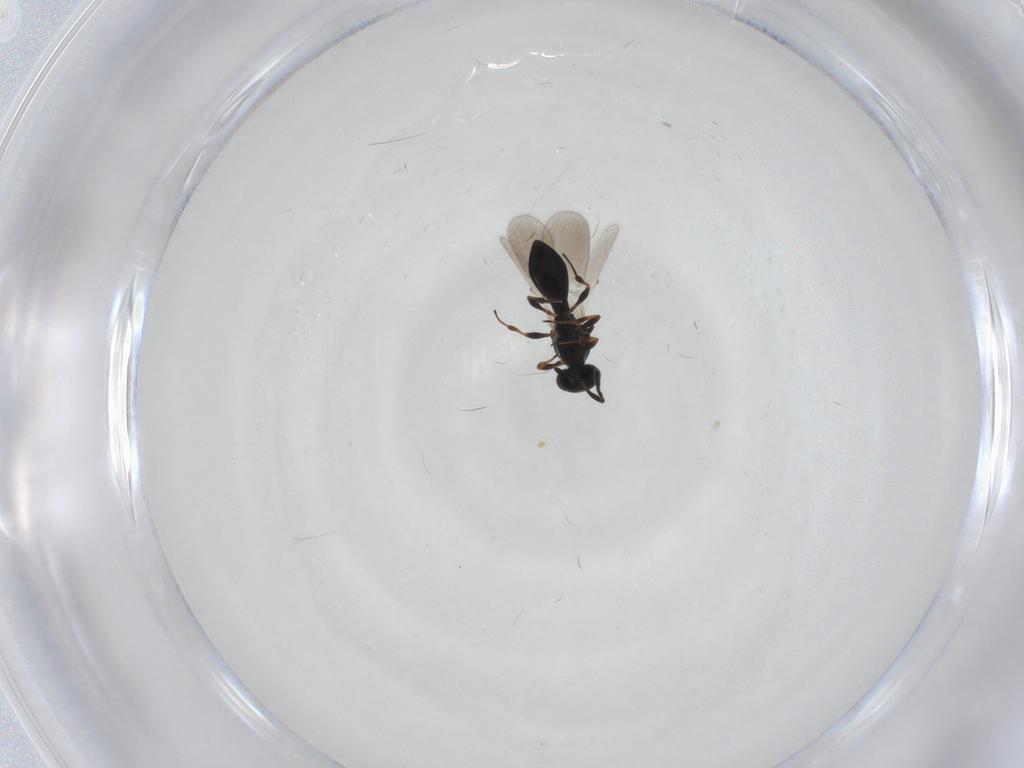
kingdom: Animalia
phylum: Arthropoda
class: Insecta
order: Hymenoptera
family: Platygastridae
